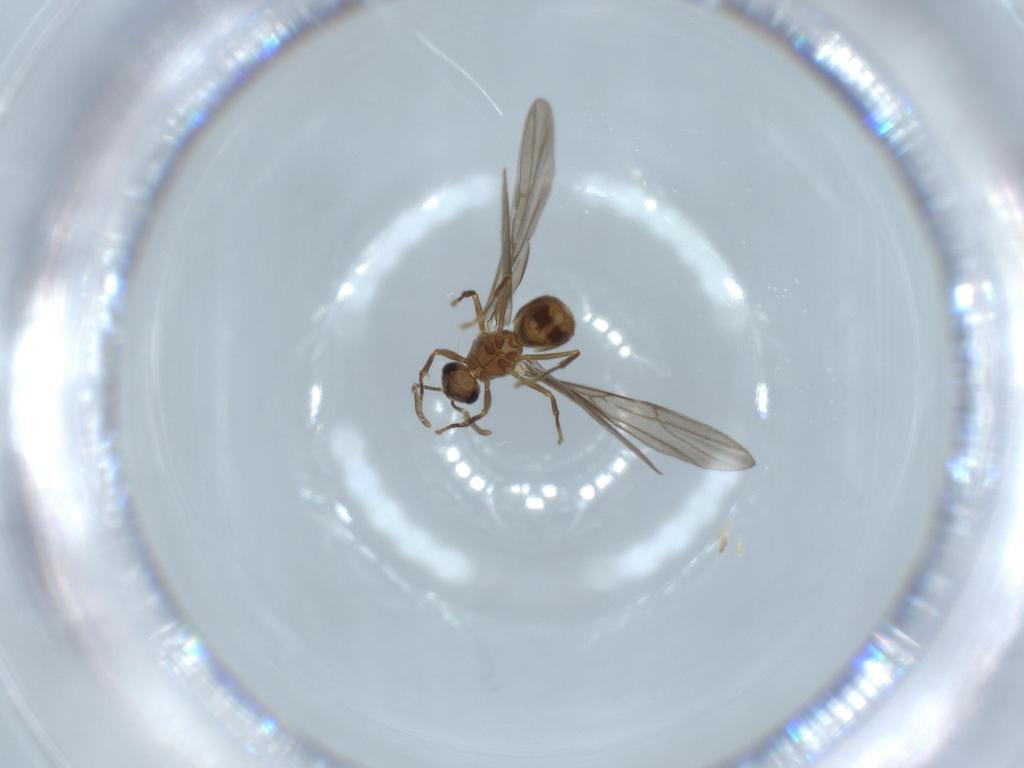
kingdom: Animalia
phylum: Arthropoda
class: Insecta
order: Hymenoptera
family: Formicidae
